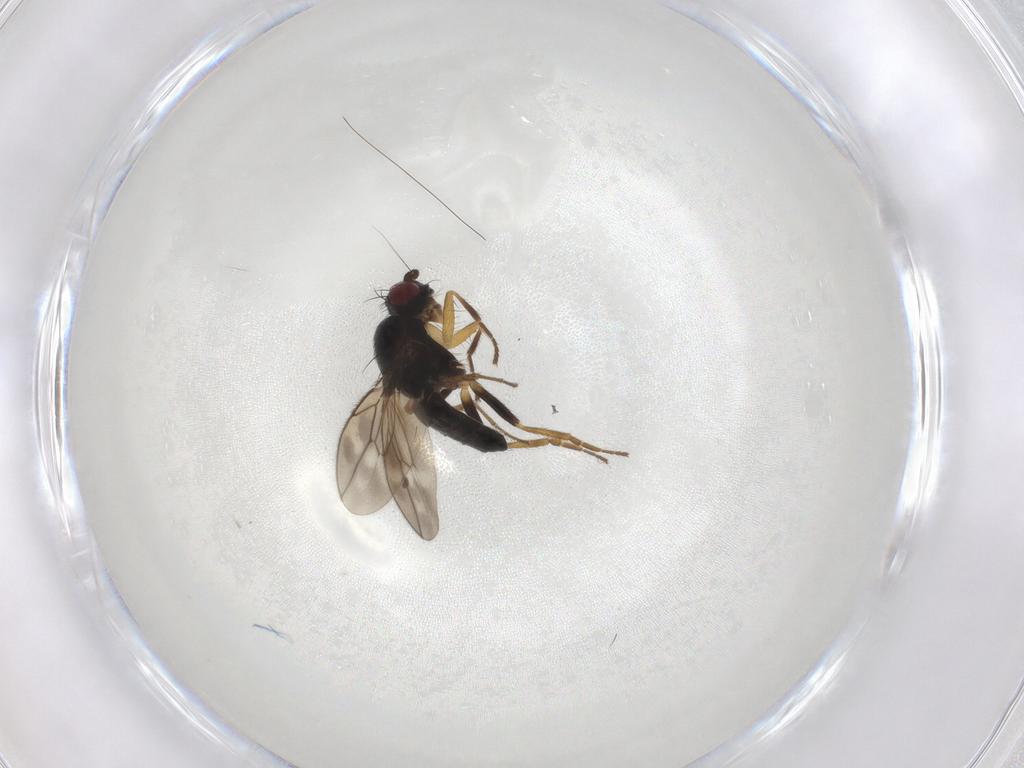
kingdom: Animalia
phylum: Arthropoda
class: Insecta
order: Diptera
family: Sphaeroceridae
